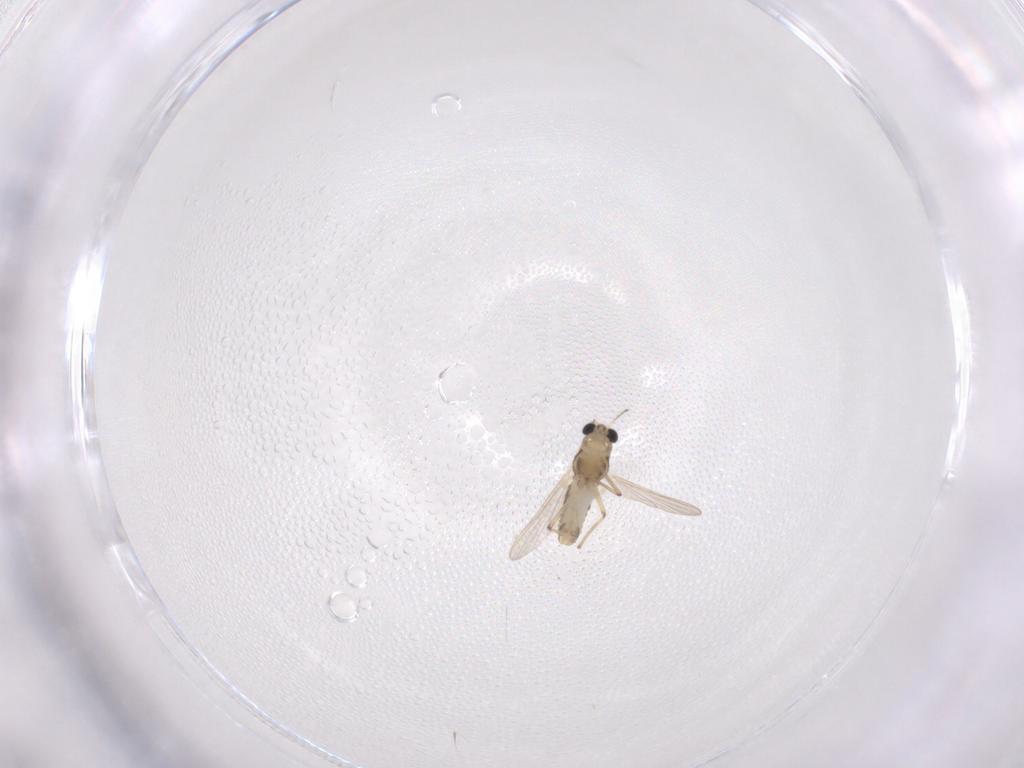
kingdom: Animalia
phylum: Arthropoda
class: Insecta
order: Diptera
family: Chironomidae
